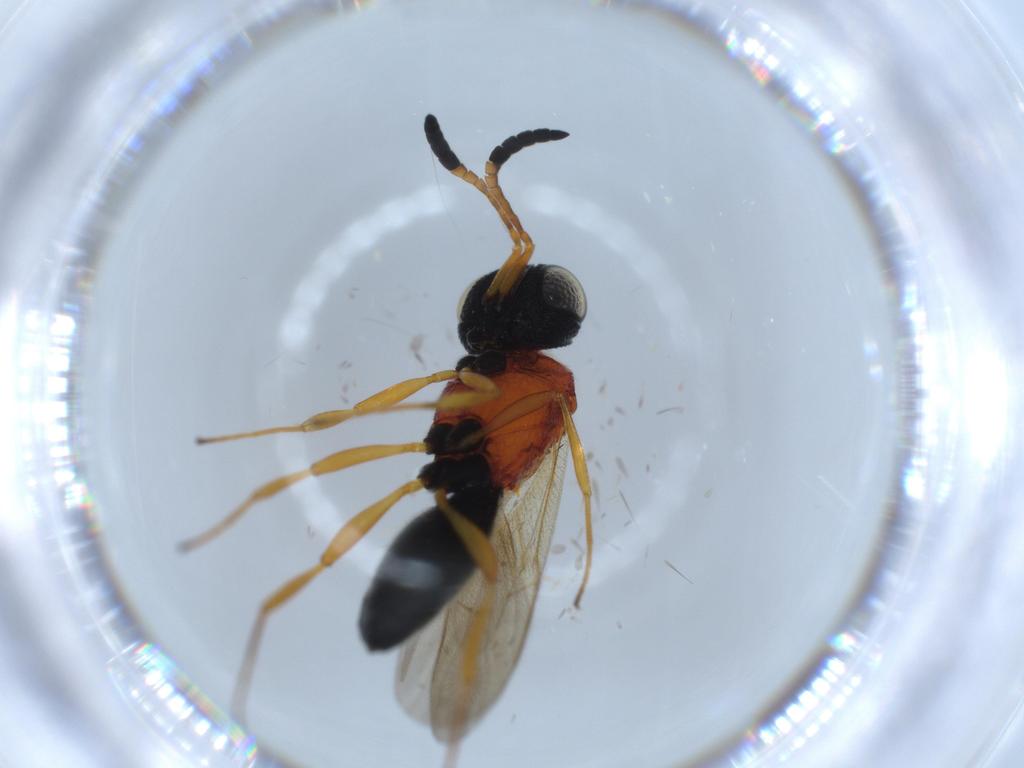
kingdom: Animalia
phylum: Arthropoda
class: Insecta
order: Hymenoptera
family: Scelionidae
